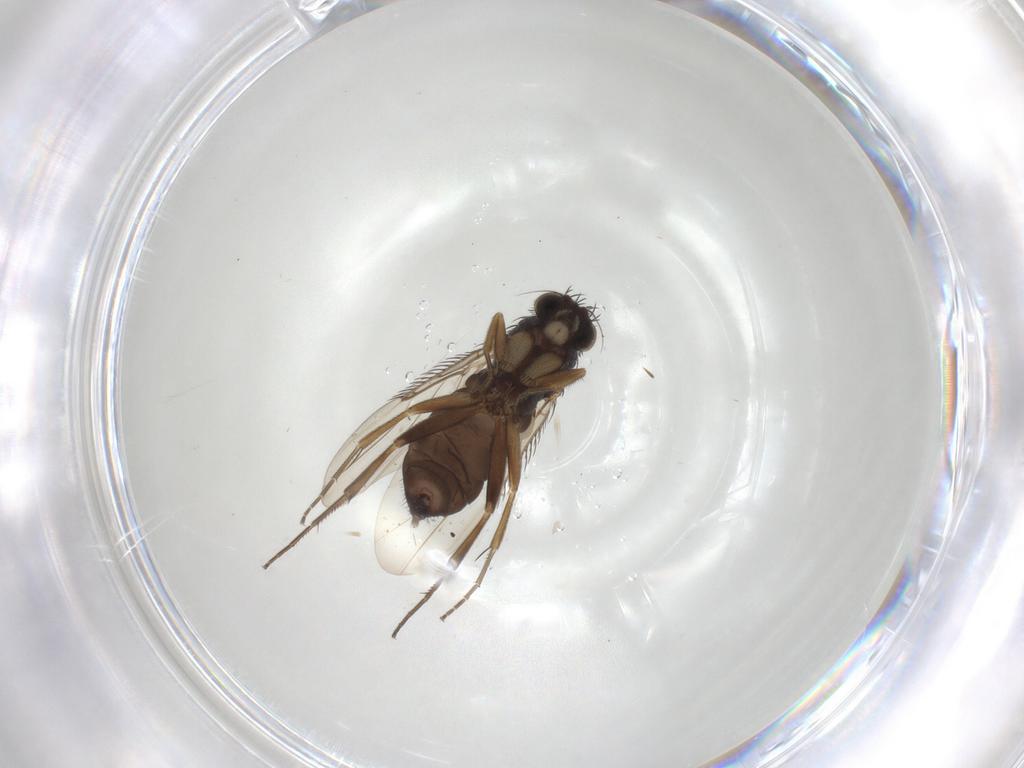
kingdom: Animalia
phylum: Arthropoda
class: Insecta
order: Diptera
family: Phoridae
